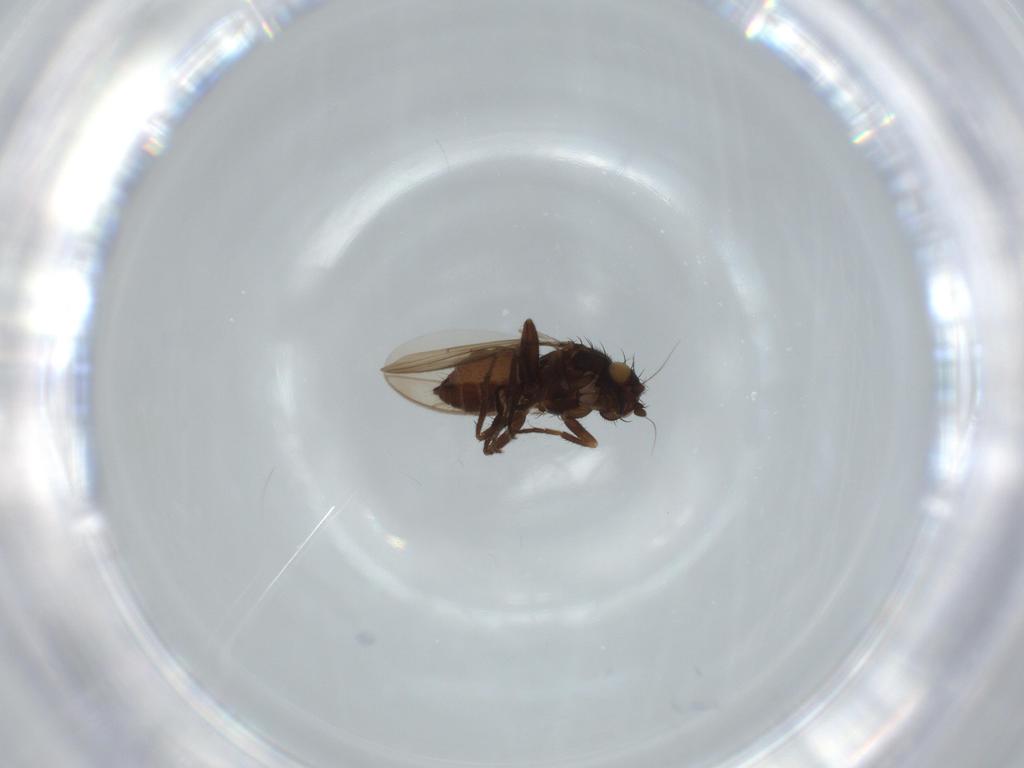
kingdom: Animalia
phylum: Arthropoda
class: Insecta
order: Diptera
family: Sphaeroceridae
